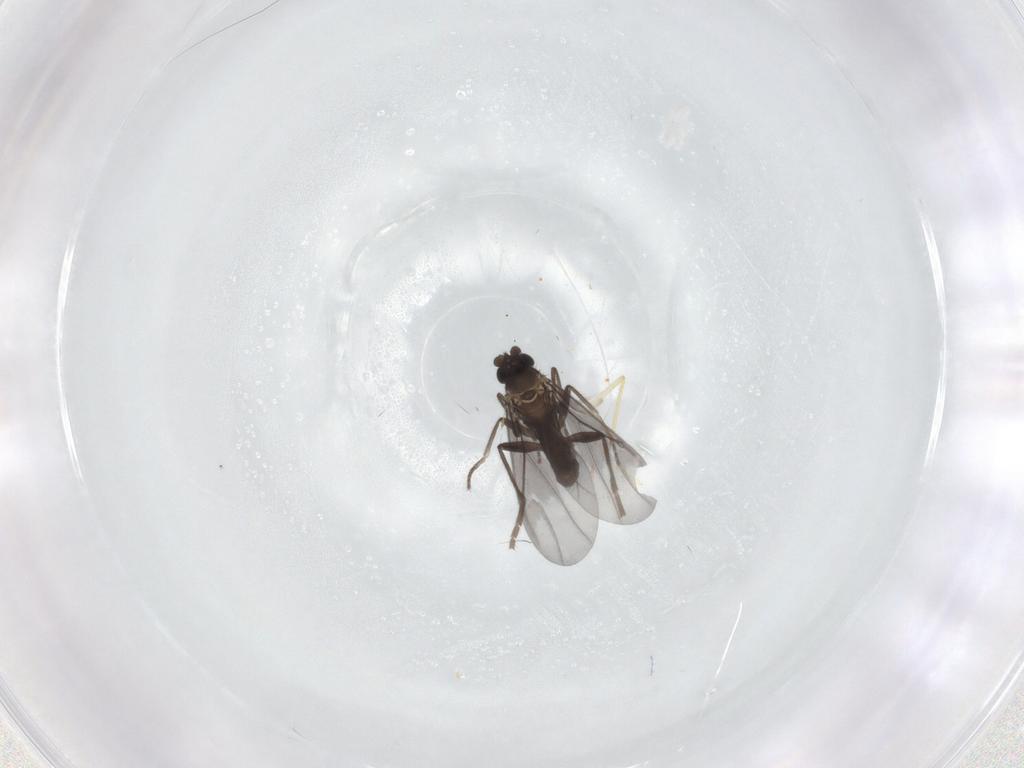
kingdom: Animalia
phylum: Arthropoda
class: Insecta
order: Diptera
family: Phoridae
